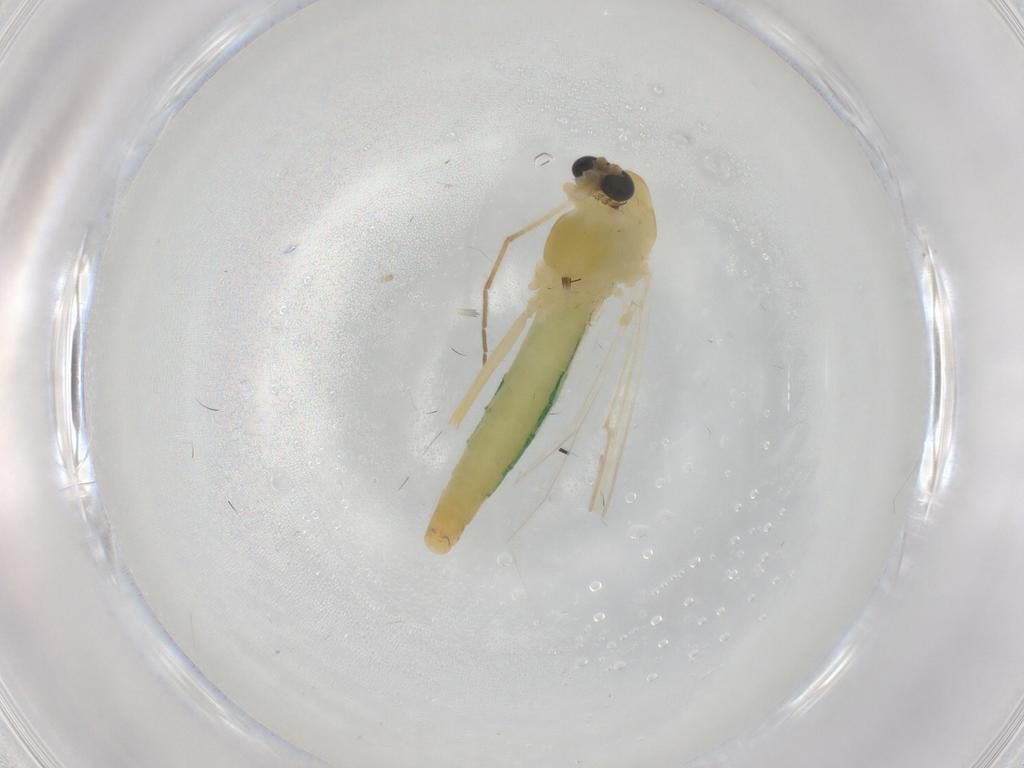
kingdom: Animalia
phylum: Arthropoda
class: Insecta
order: Diptera
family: Chironomidae
